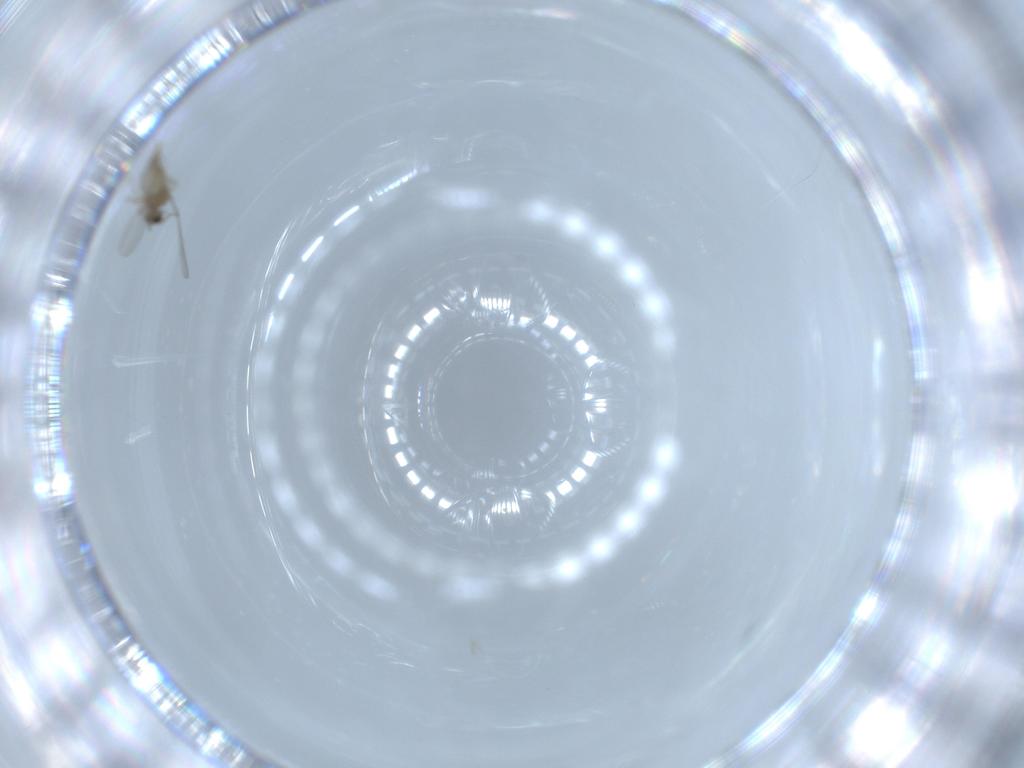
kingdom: Animalia
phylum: Arthropoda
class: Insecta
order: Diptera
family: Cecidomyiidae
